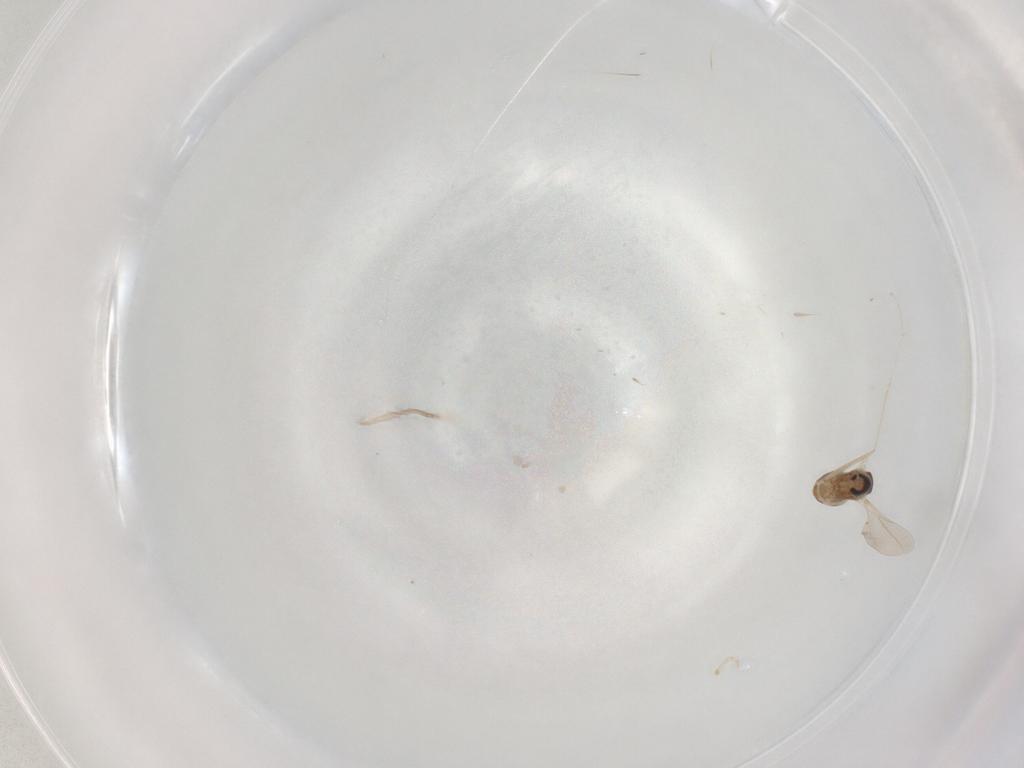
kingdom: Animalia
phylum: Arthropoda
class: Insecta
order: Diptera
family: Cecidomyiidae
